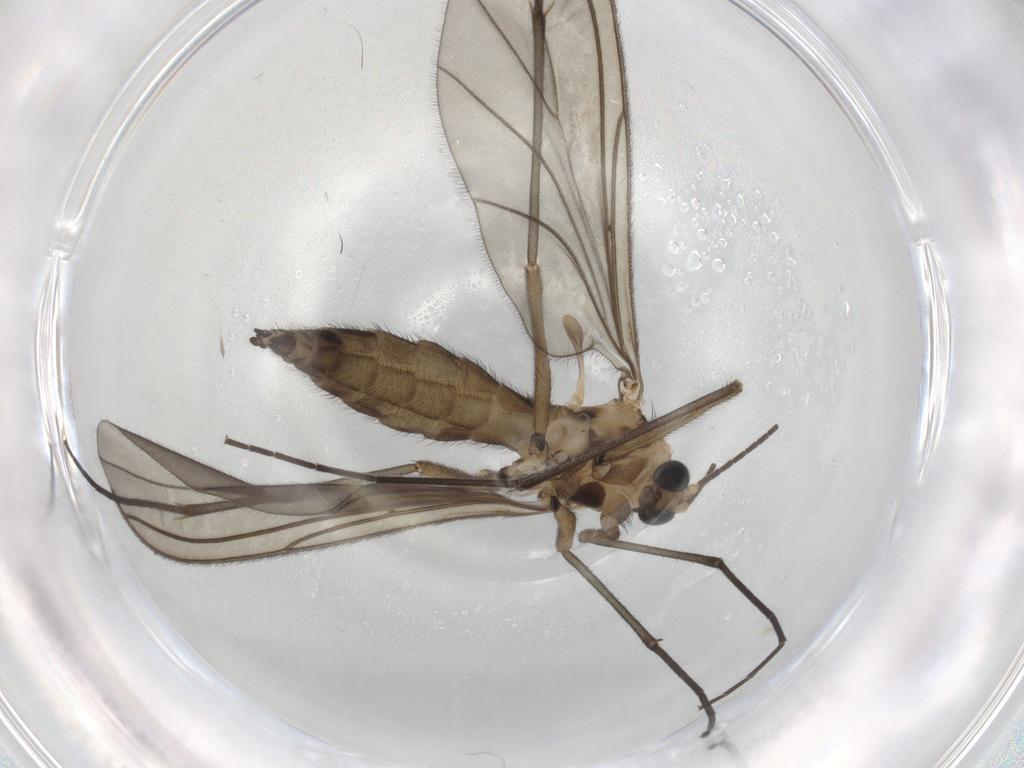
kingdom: Animalia
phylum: Arthropoda
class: Insecta
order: Diptera
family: Sciaridae
